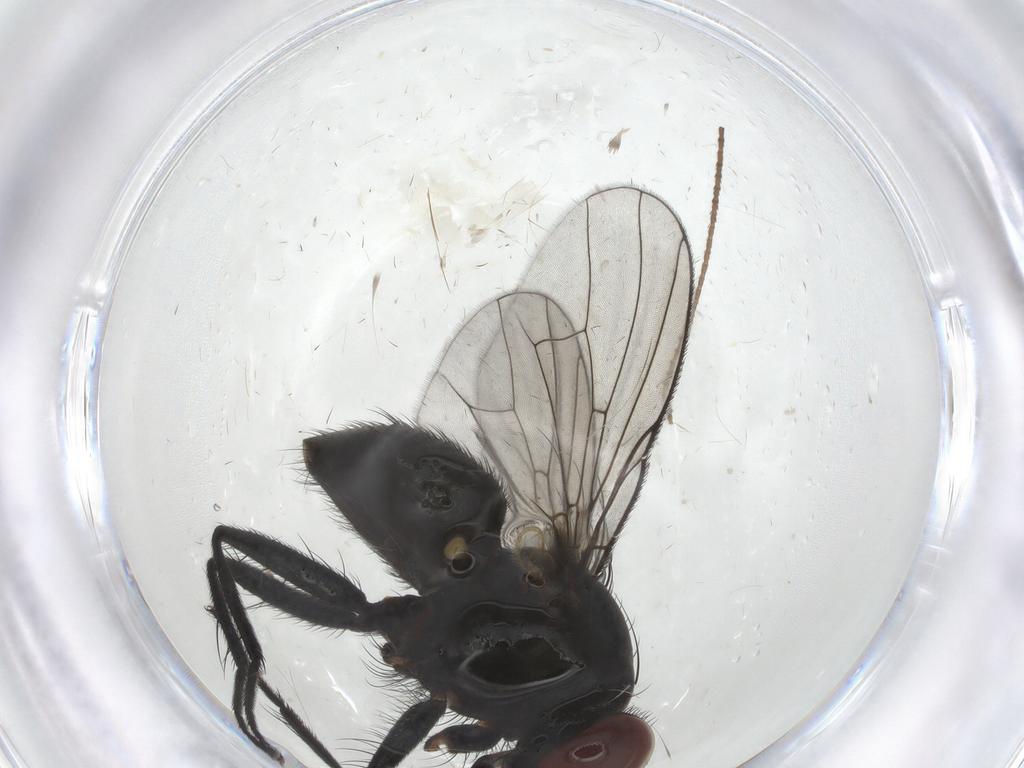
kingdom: Animalia
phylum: Arthropoda
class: Insecta
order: Diptera
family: Muscidae
